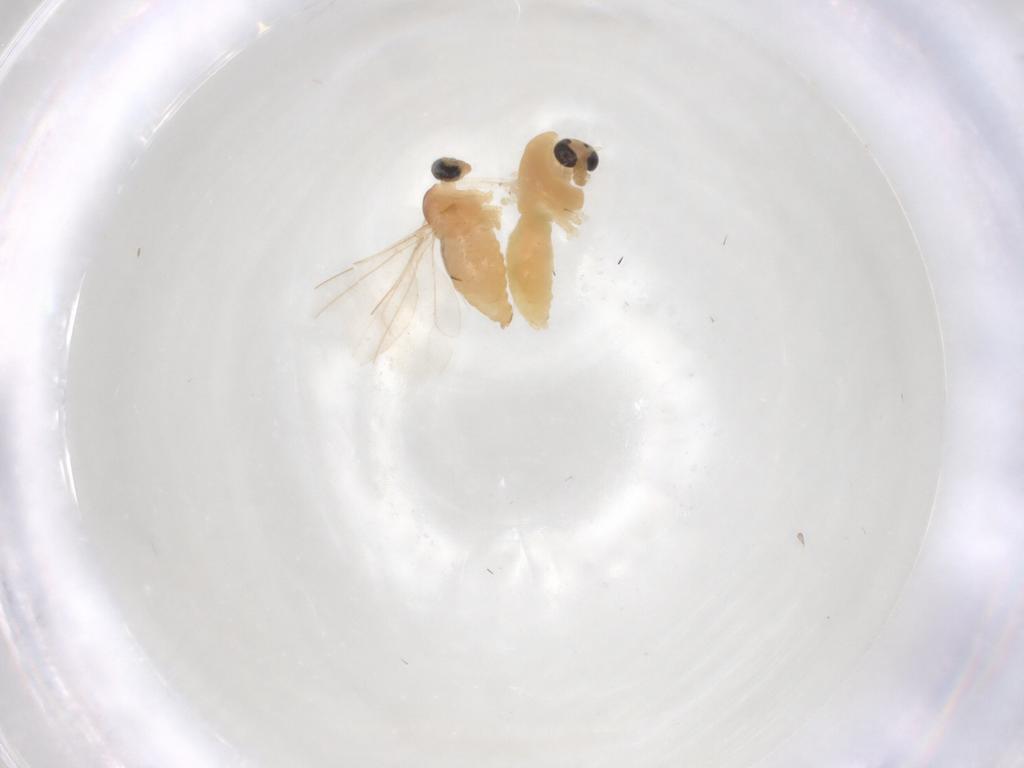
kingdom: Animalia
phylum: Arthropoda
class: Insecta
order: Diptera
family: Chironomidae
